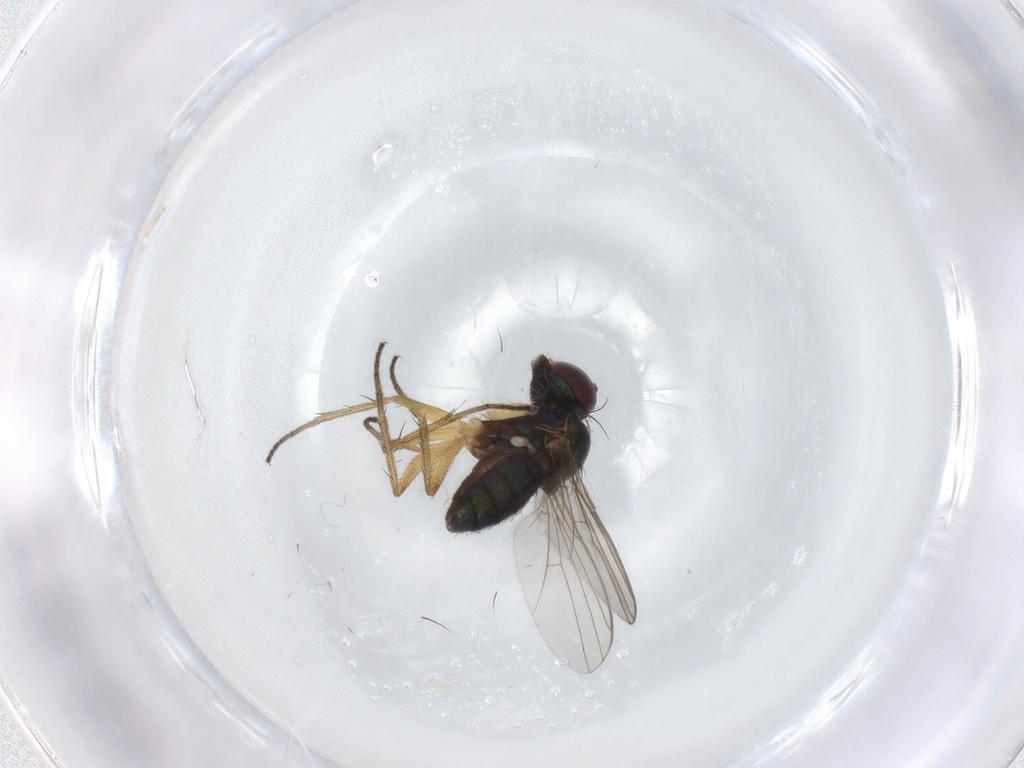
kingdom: Animalia
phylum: Arthropoda
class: Insecta
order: Diptera
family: Dolichopodidae
